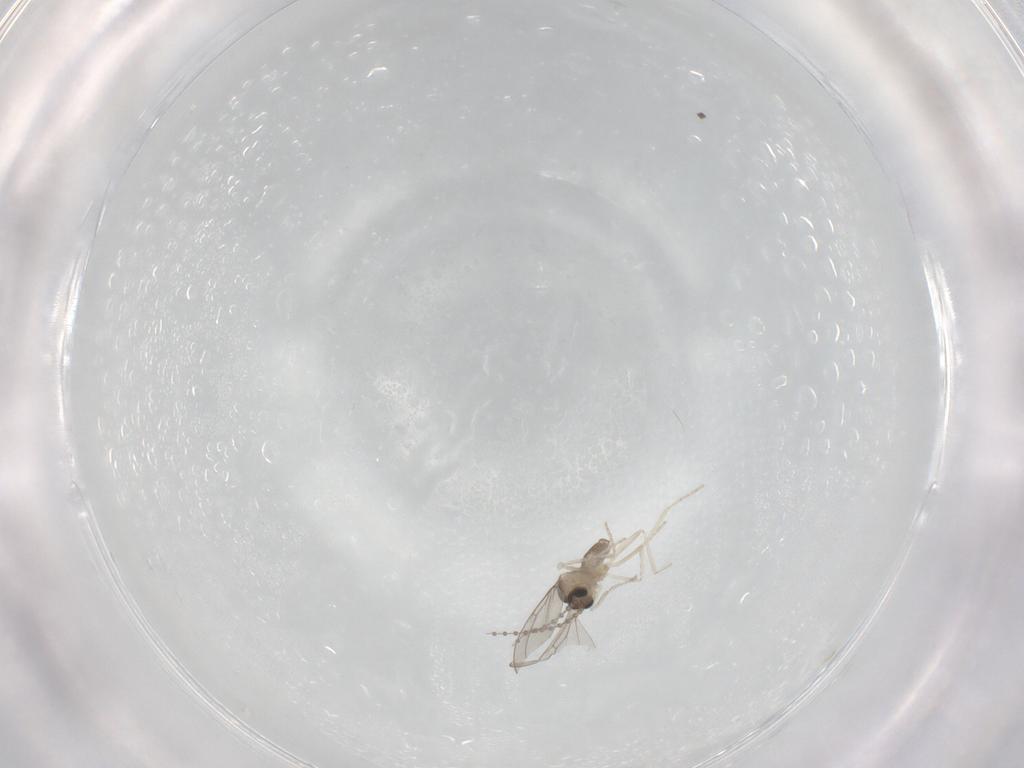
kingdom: Animalia
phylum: Arthropoda
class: Insecta
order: Diptera
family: Cecidomyiidae
